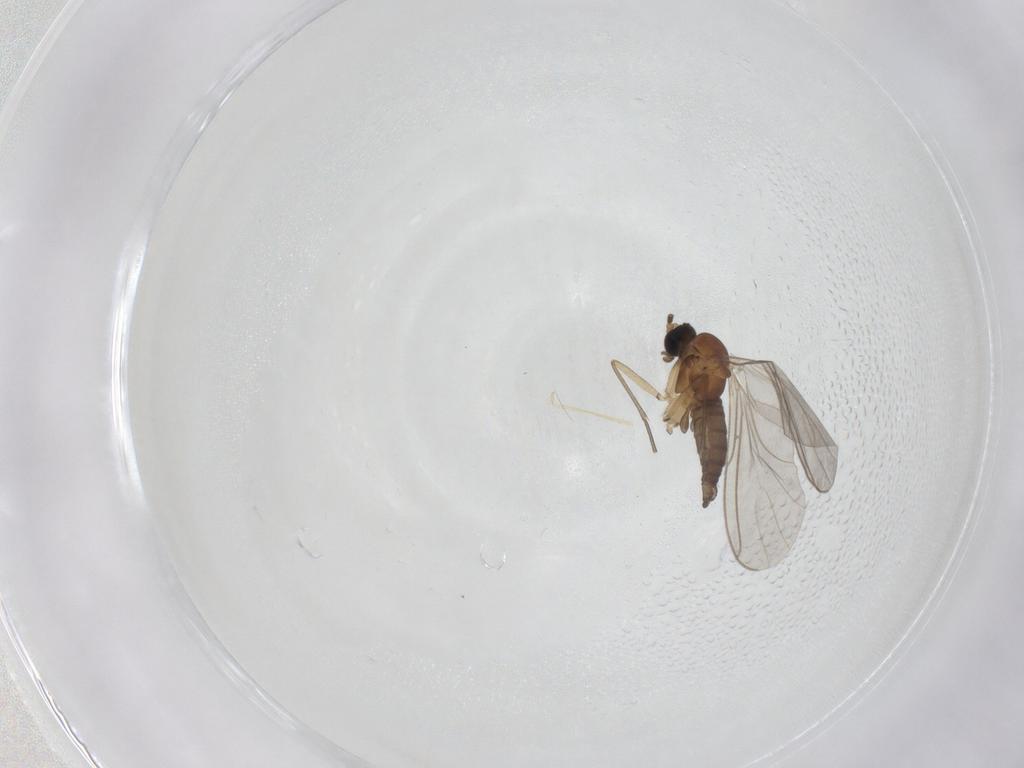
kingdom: Animalia
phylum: Arthropoda
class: Insecta
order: Diptera
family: Sciaridae
